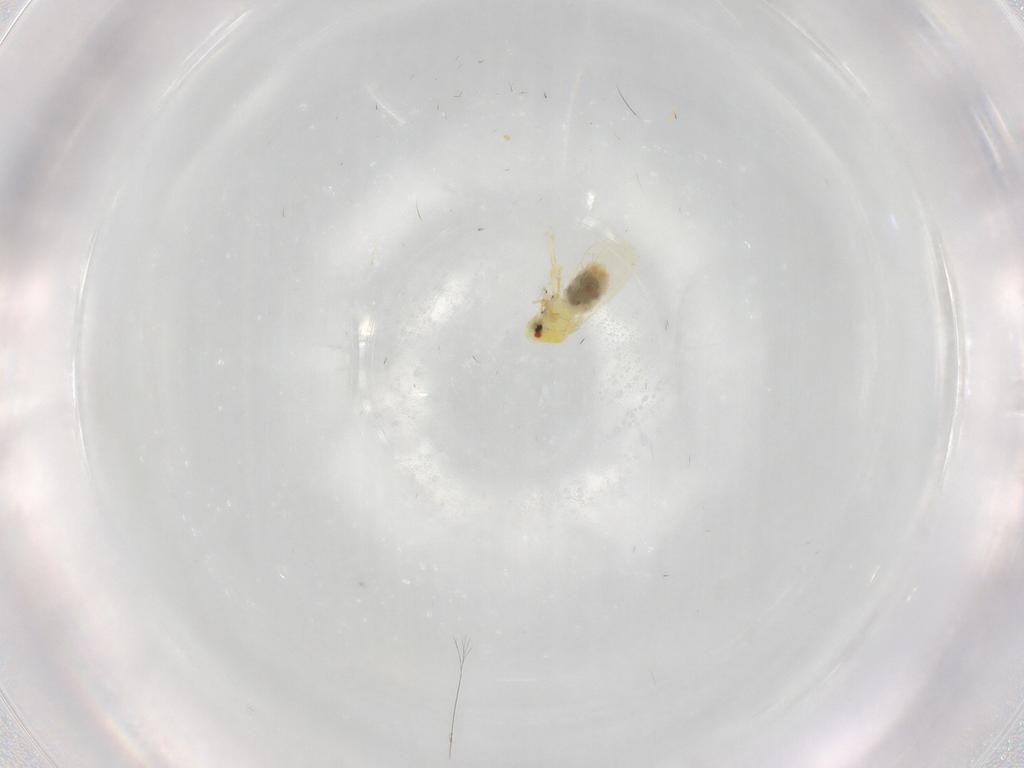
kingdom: Animalia
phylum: Arthropoda
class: Insecta
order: Hemiptera
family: Aleyrodidae
